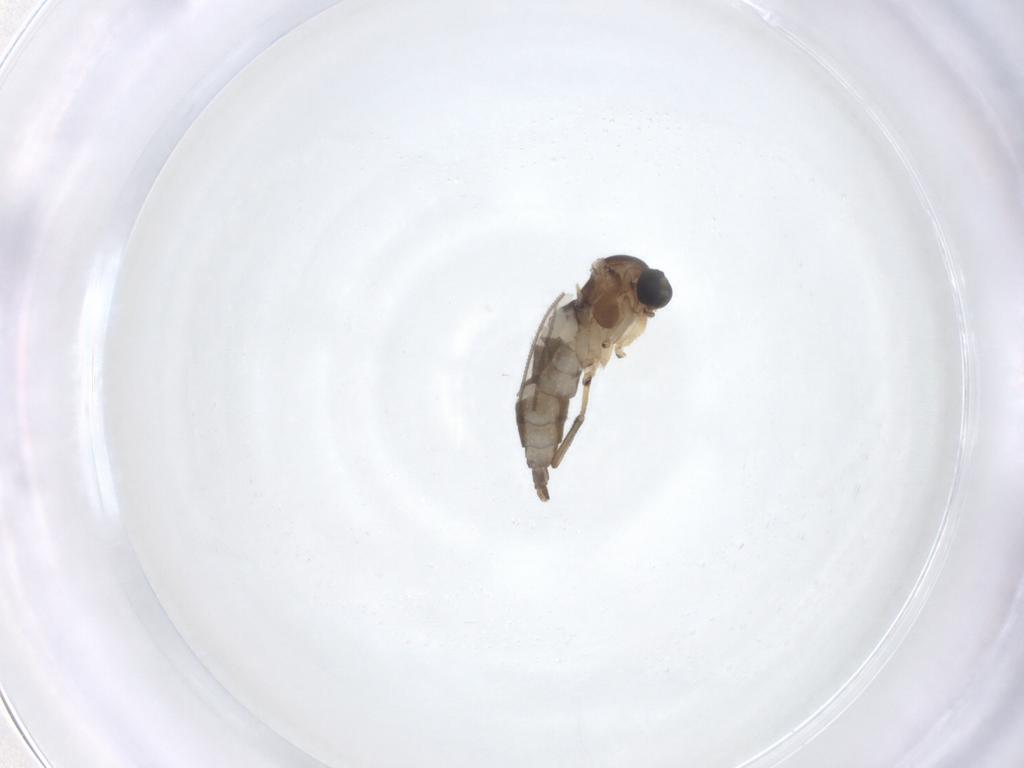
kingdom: Animalia
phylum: Arthropoda
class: Insecta
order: Diptera
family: Sciaridae
